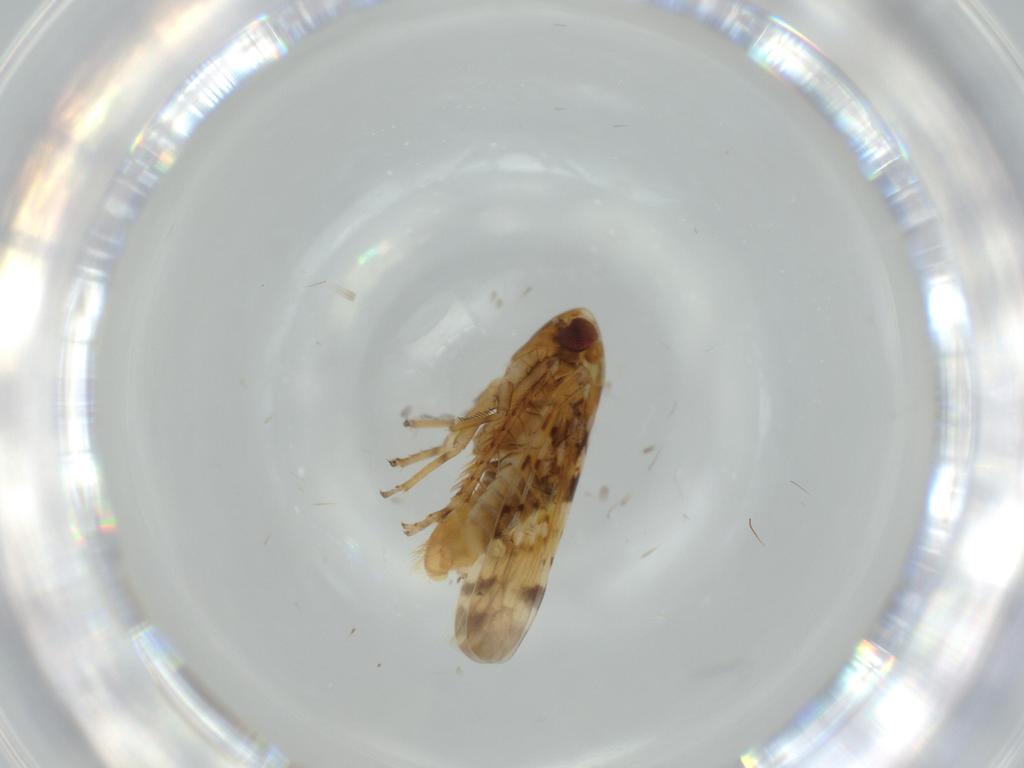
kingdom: Animalia
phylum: Arthropoda
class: Insecta
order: Hemiptera
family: Cicadellidae
